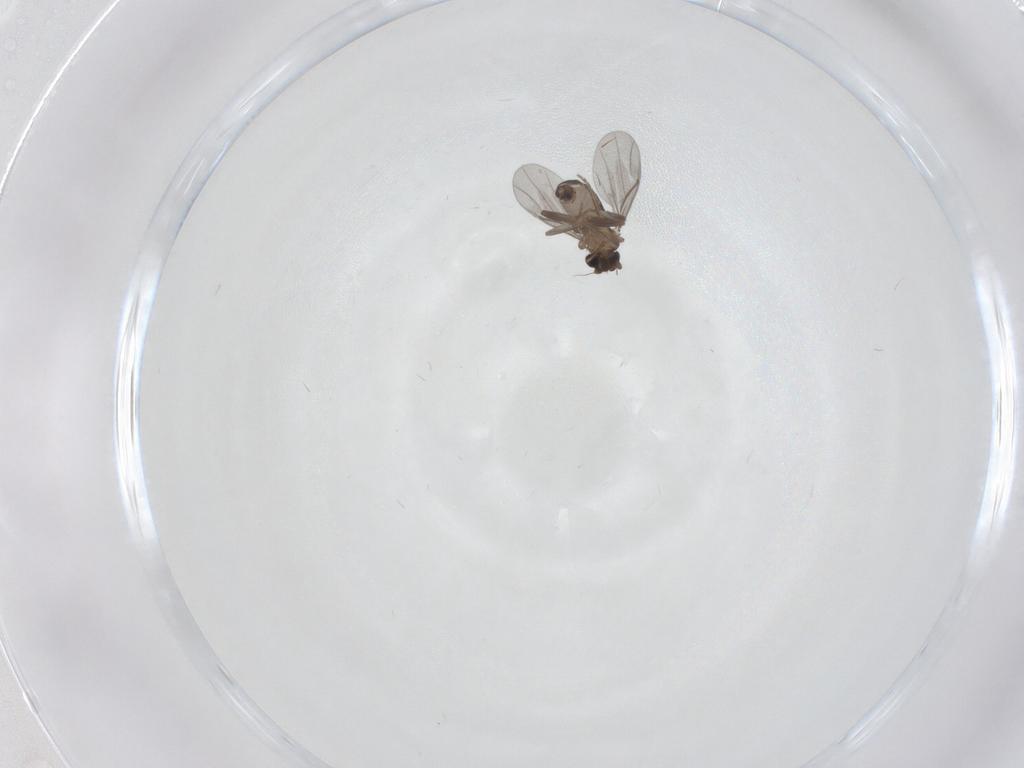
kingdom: Animalia
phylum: Arthropoda
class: Insecta
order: Diptera
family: Phoridae
